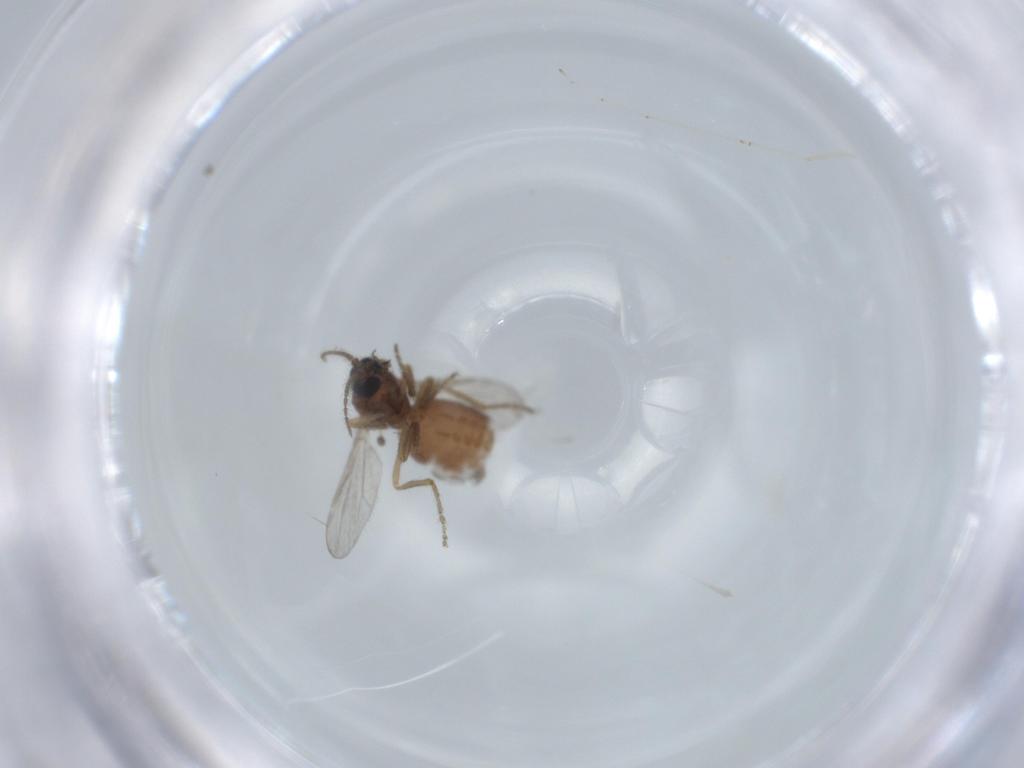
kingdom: Animalia
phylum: Arthropoda
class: Insecta
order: Diptera
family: Ceratopogonidae
